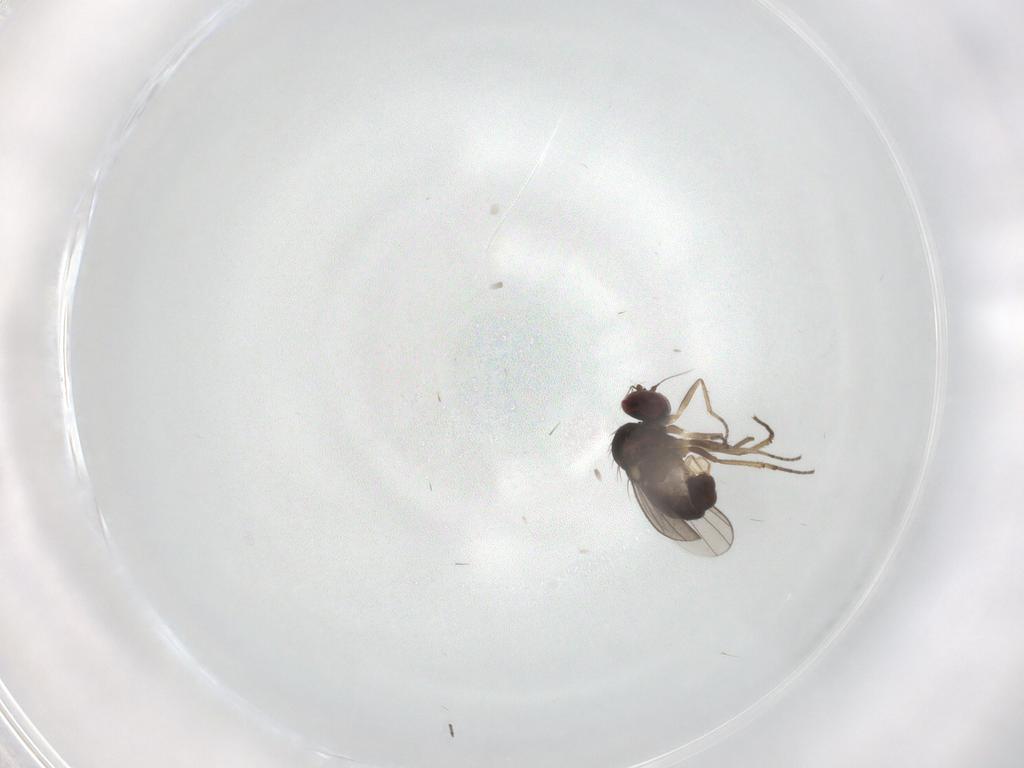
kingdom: Animalia
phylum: Arthropoda
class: Insecta
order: Diptera
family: Dolichopodidae
